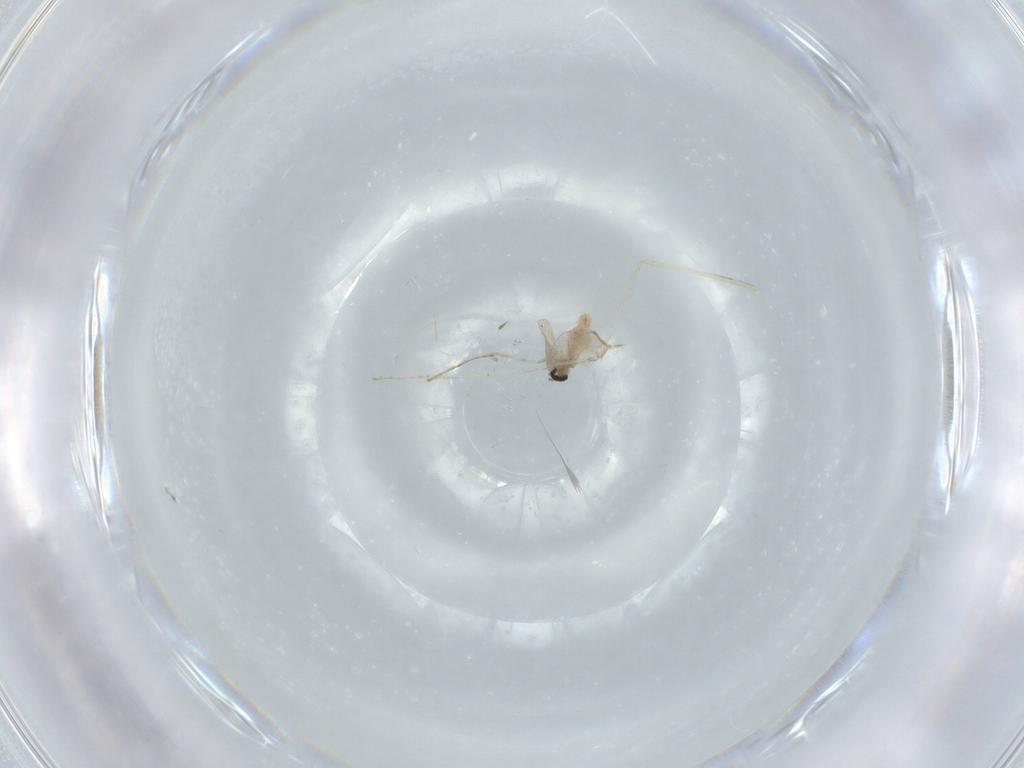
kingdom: Animalia
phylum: Arthropoda
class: Insecta
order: Diptera
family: Cecidomyiidae
